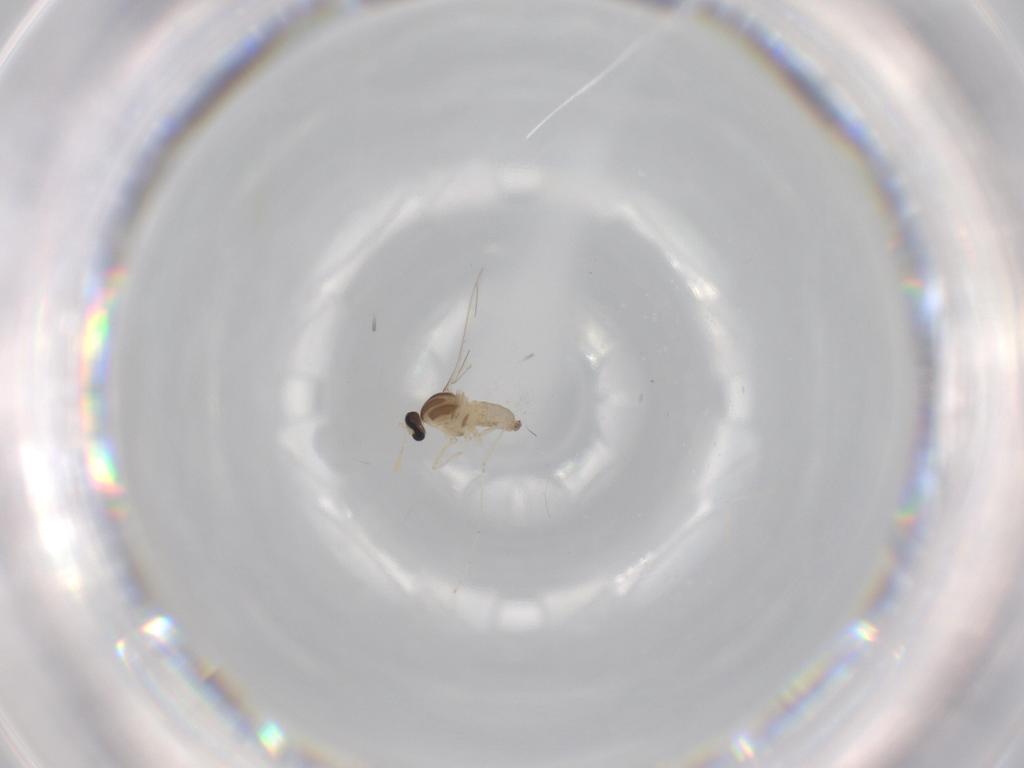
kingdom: Animalia
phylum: Arthropoda
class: Insecta
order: Diptera
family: Cecidomyiidae
